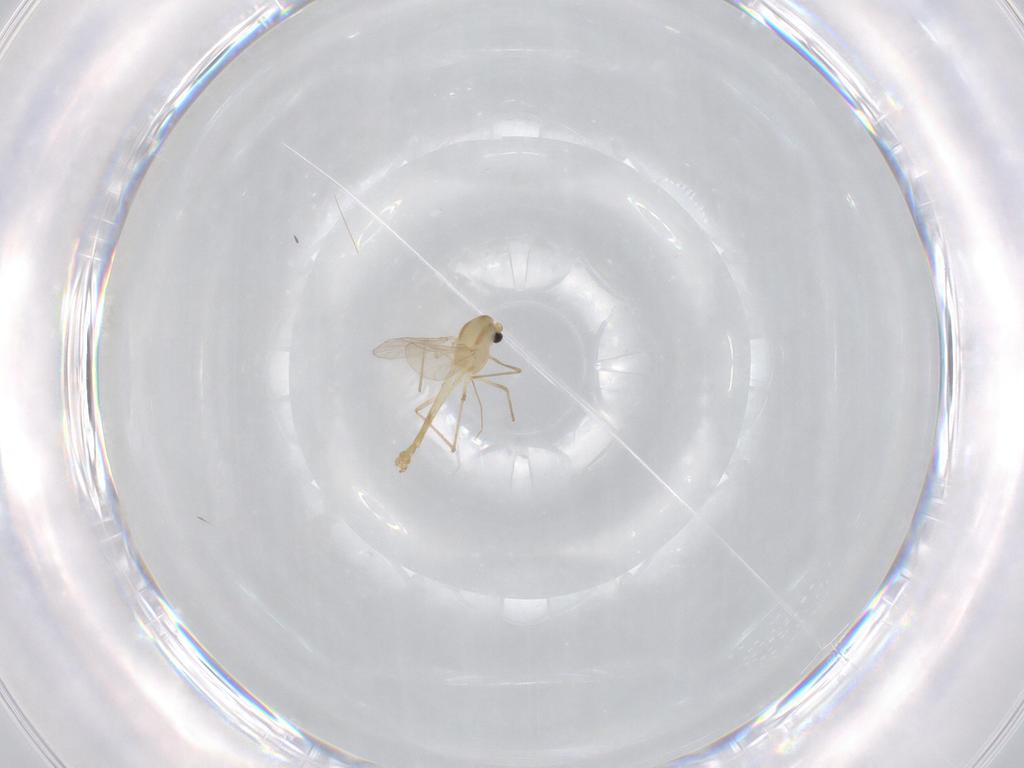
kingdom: Animalia
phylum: Arthropoda
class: Insecta
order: Diptera
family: Chironomidae
